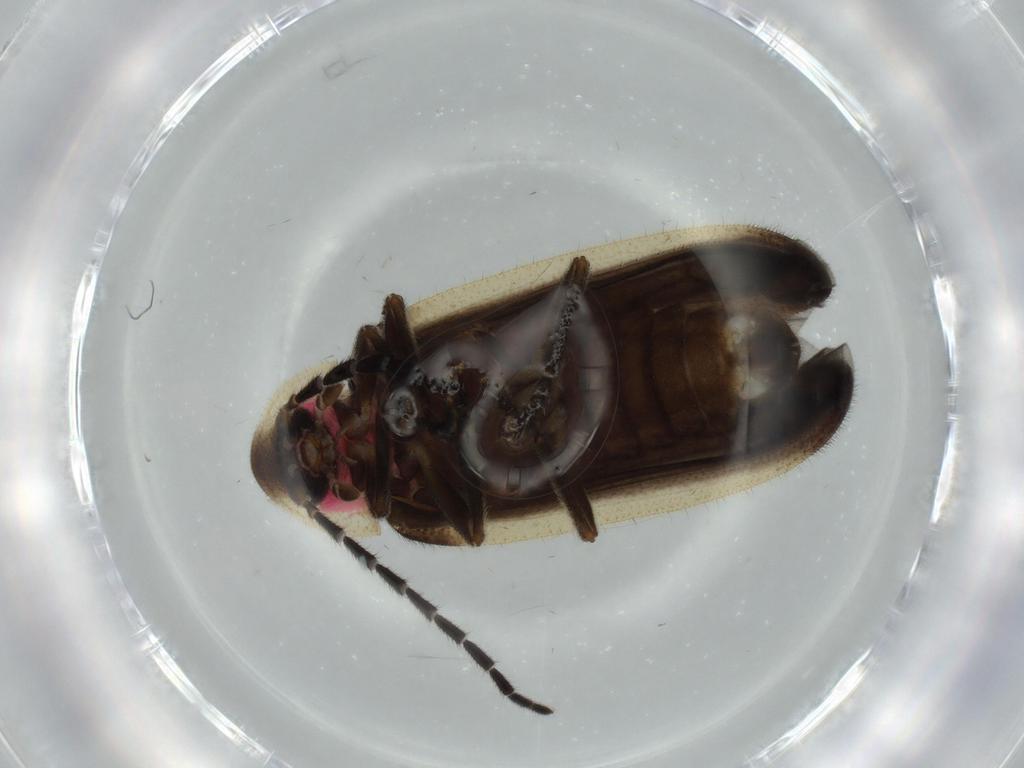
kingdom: Animalia
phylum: Arthropoda
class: Insecta
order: Coleoptera
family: Lampyridae
